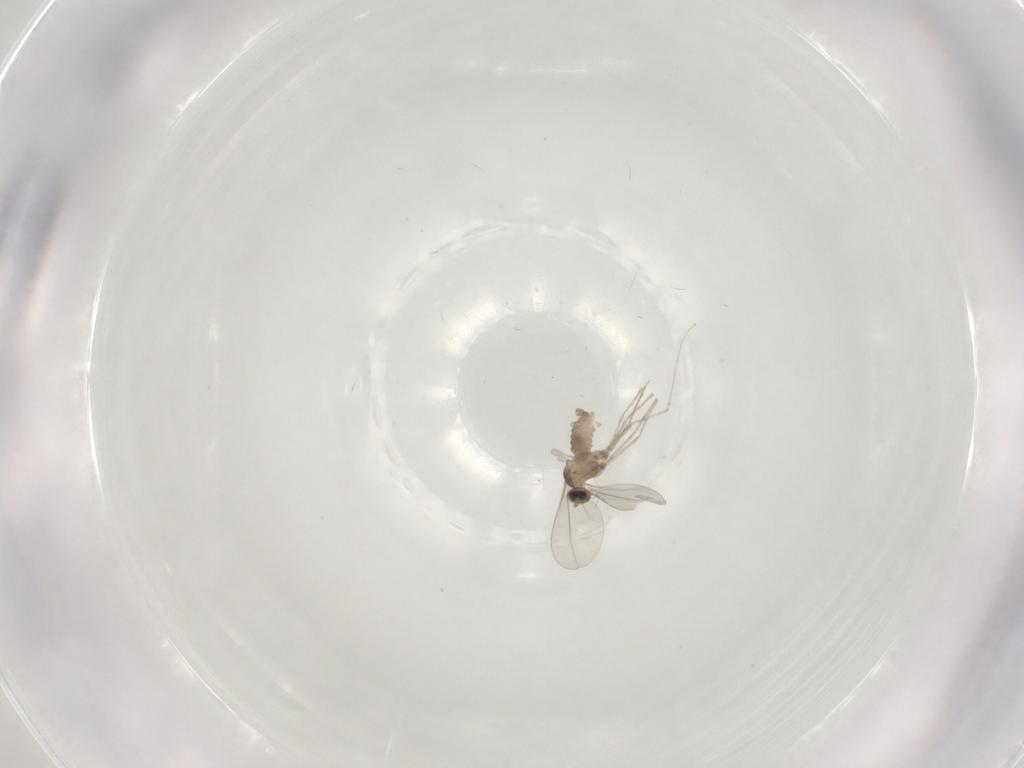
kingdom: Animalia
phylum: Arthropoda
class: Insecta
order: Diptera
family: Cecidomyiidae
